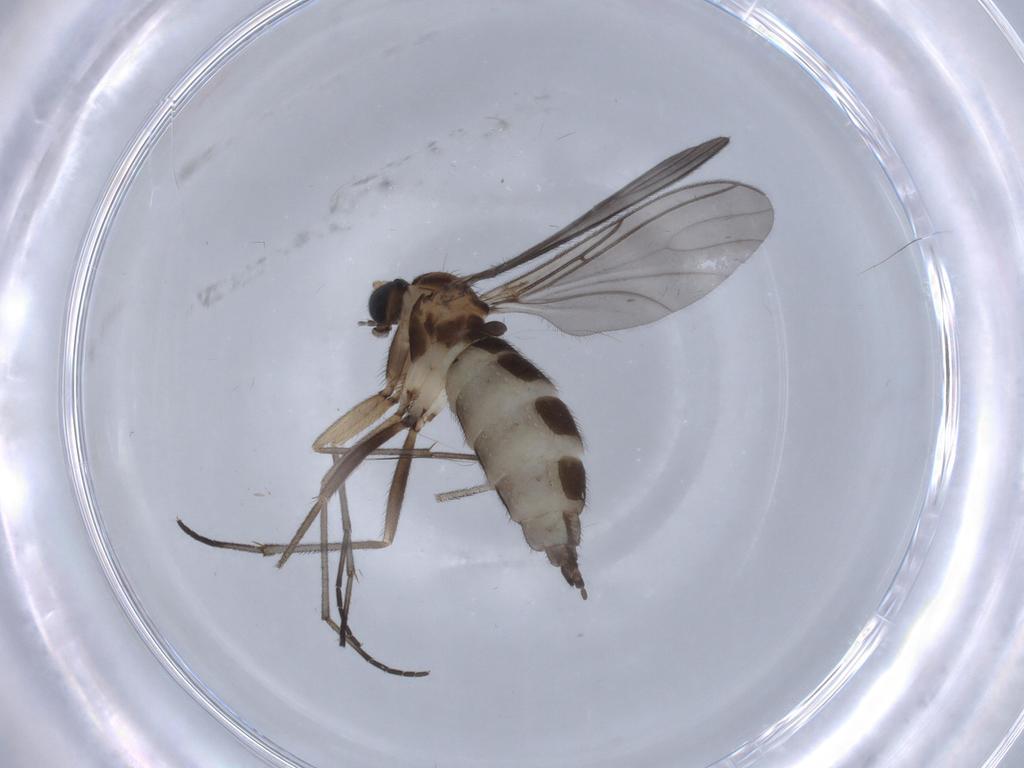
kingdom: Animalia
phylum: Arthropoda
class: Insecta
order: Diptera
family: Sciaridae
